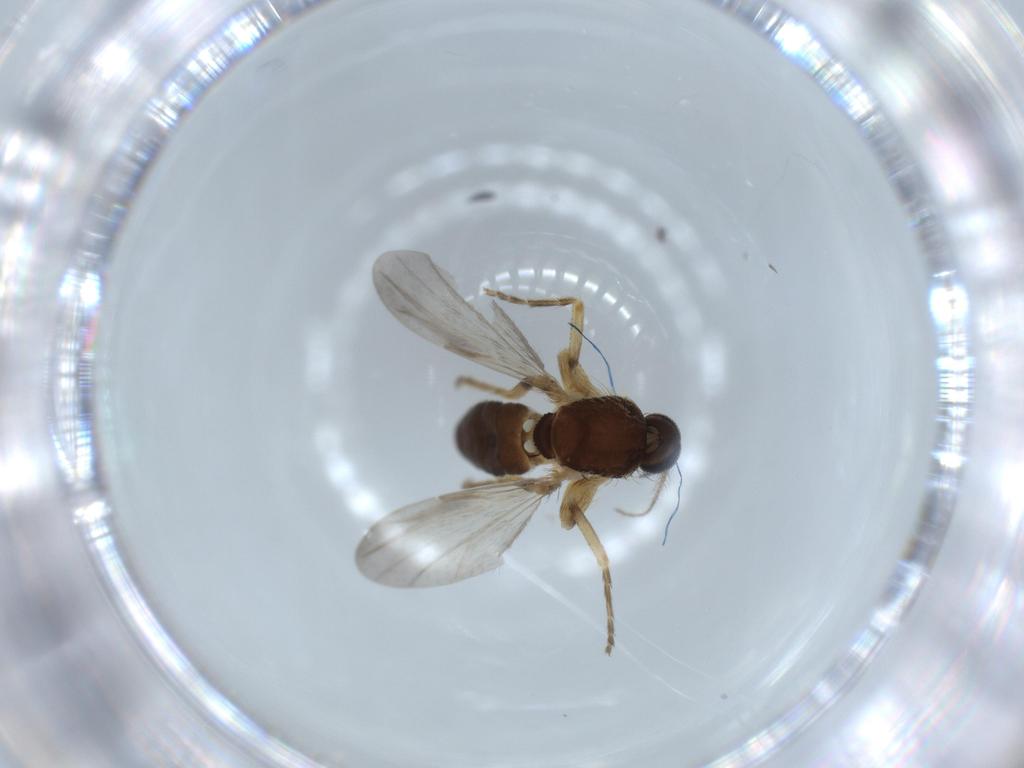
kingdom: Animalia
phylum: Arthropoda
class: Insecta
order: Diptera
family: Ceratopogonidae
